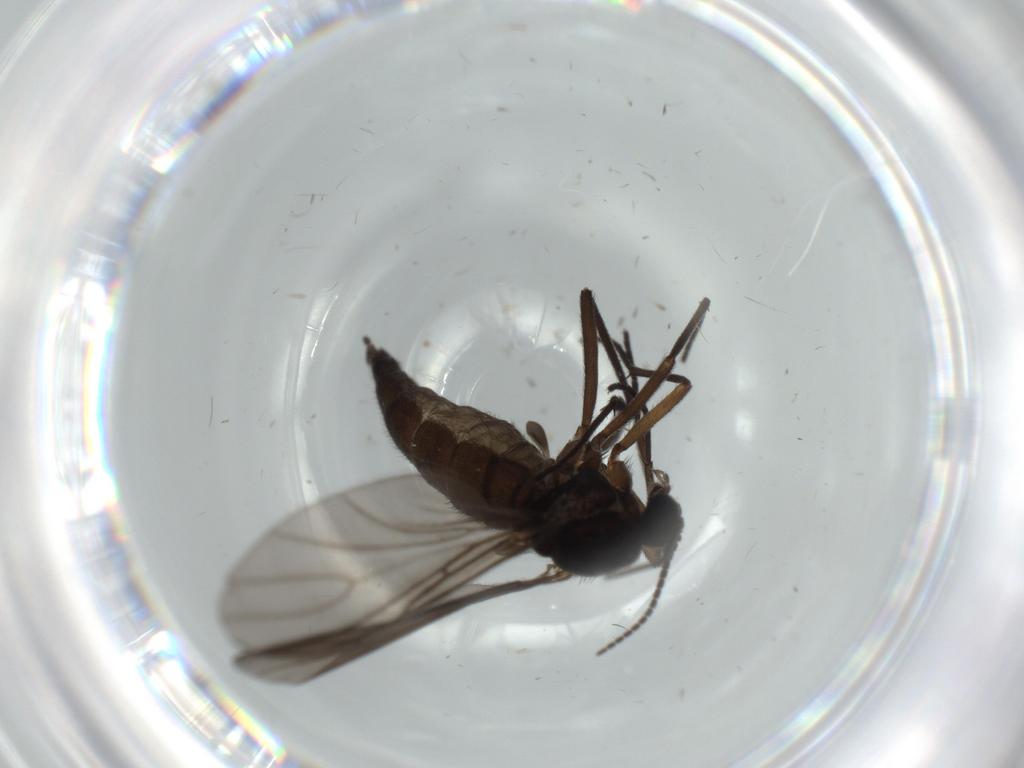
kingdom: Animalia
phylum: Arthropoda
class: Insecta
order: Diptera
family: Sciaridae
